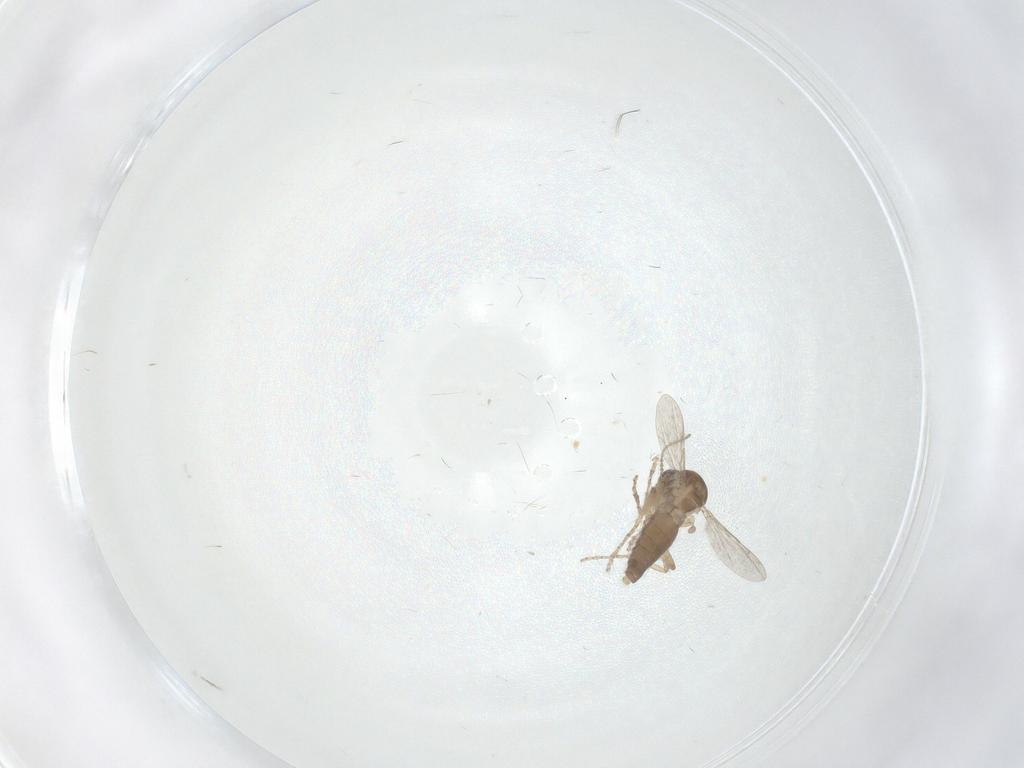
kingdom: Animalia
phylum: Arthropoda
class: Insecta
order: Diptera
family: Ceratopogonidae
